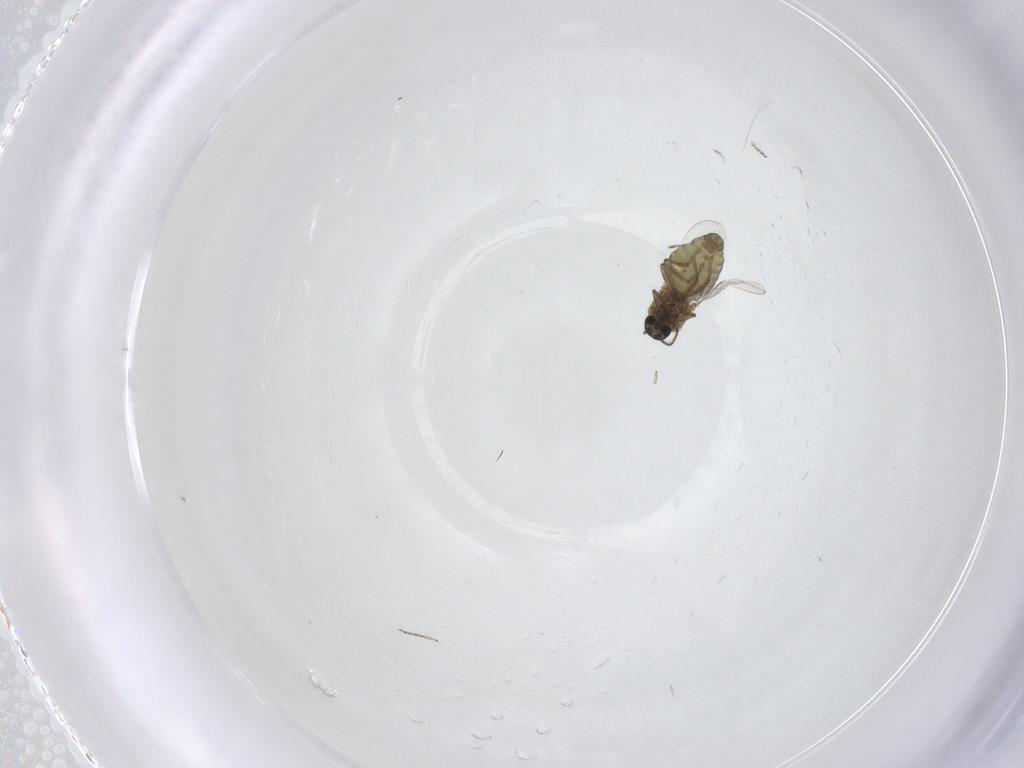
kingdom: Animalia
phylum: Arthropoda
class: Insecta
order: Diptera
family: Ceratopogonidae
